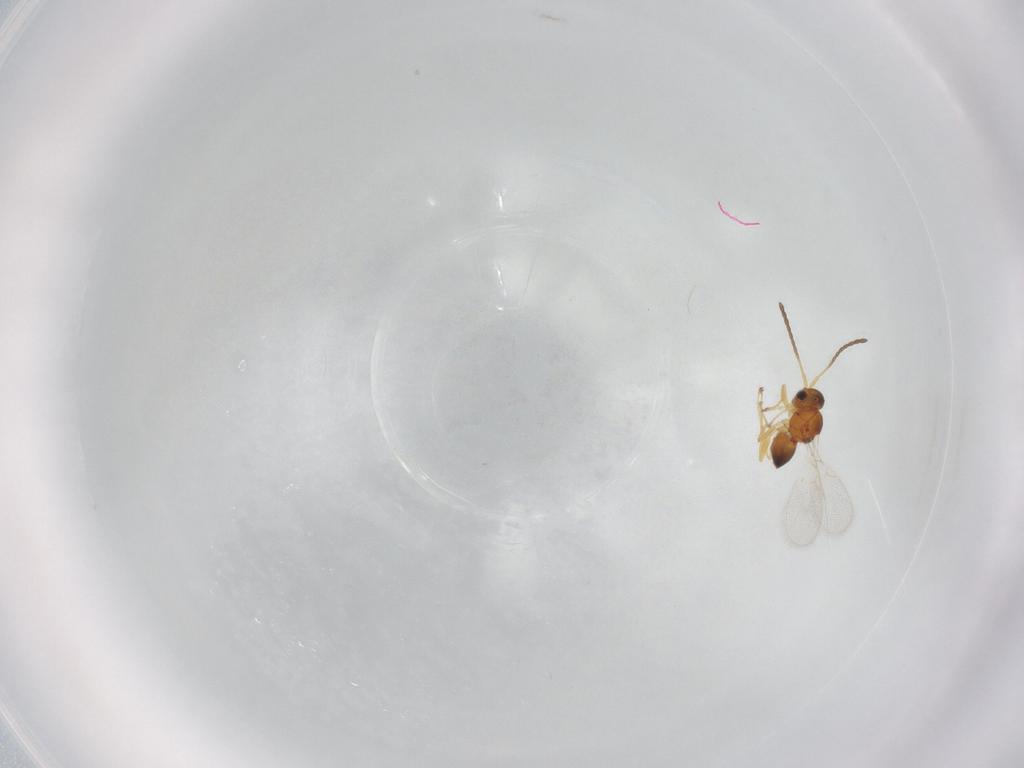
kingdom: Animalia
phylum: Arthropoda
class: Insecta
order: Hymenoptera
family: Figitidae
